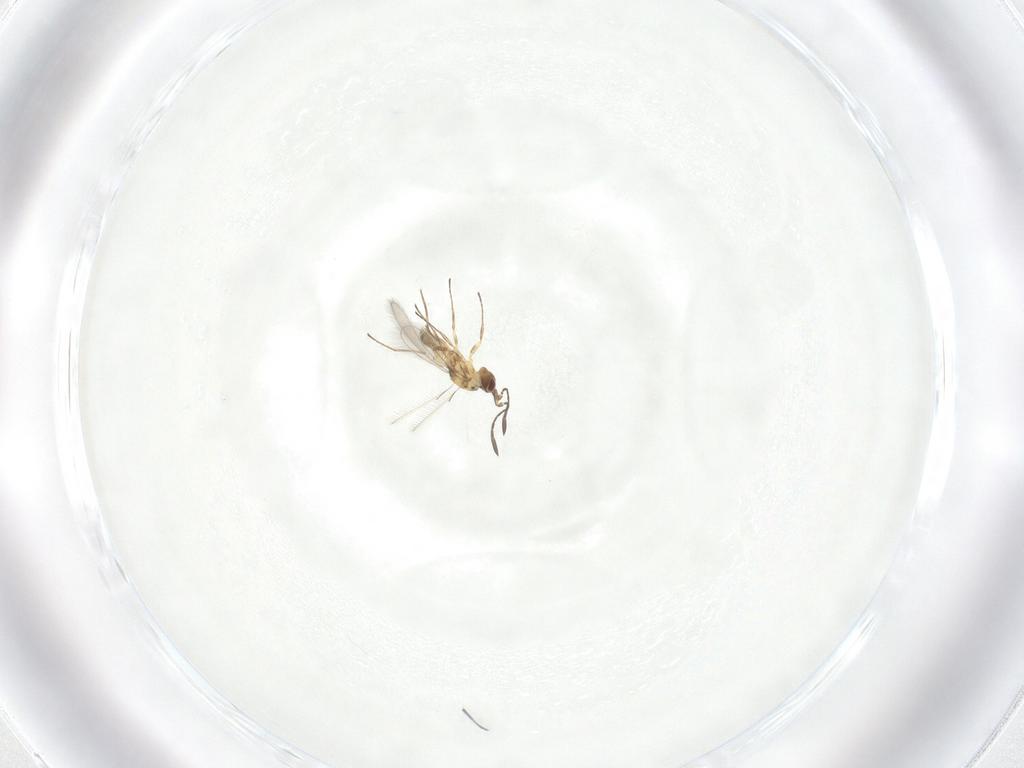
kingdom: Animalia
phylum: Arthropoda
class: Insecta
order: Hymenoptera
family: Mymaridae
